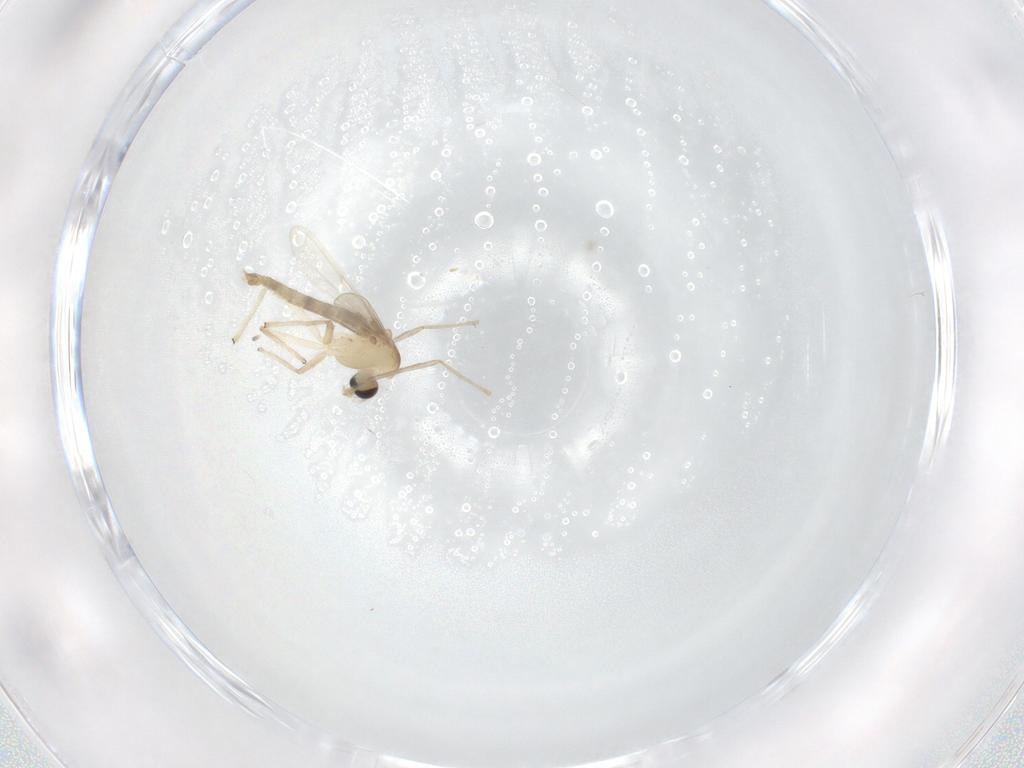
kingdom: Animalia
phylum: Arthropoda
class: Insecta
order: Diptera
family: Chironomidae
